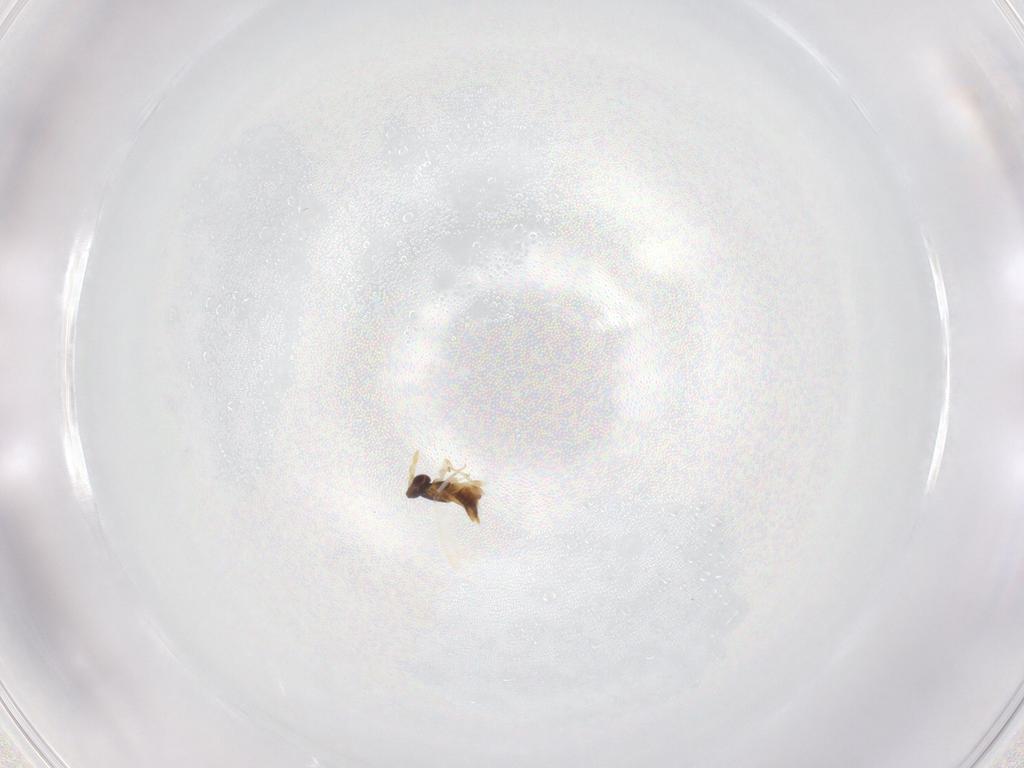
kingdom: Animalia
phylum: Arthropoda
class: Insecta
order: Hymenoptera
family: Aphelinidae
